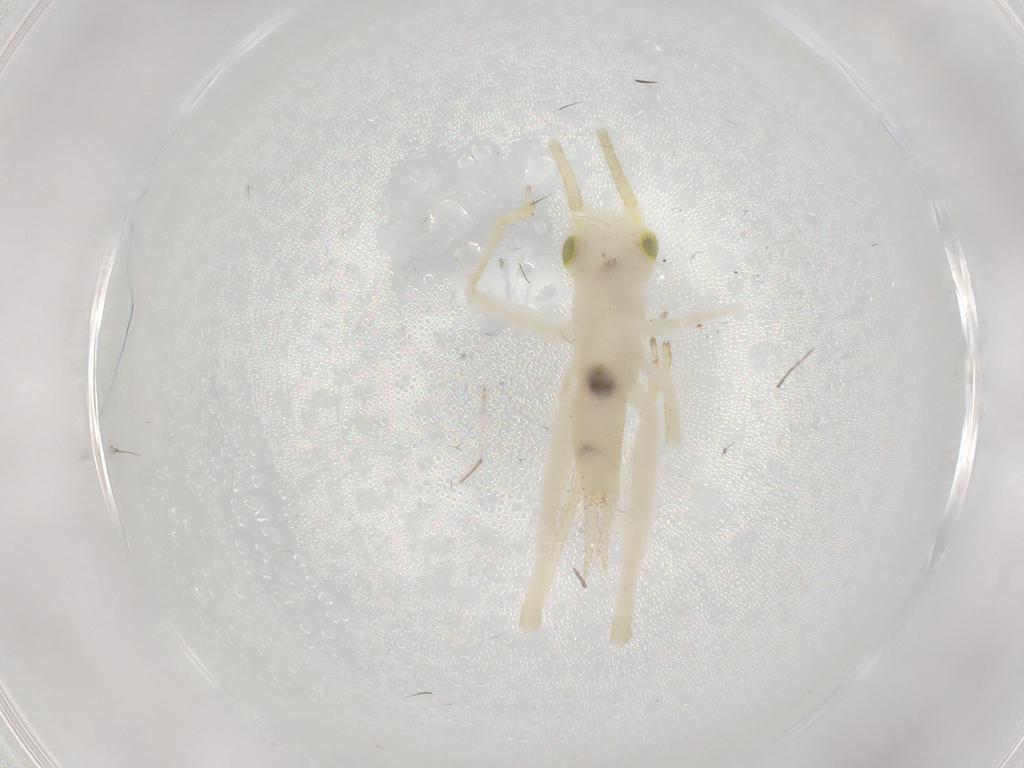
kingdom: Animalia
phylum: Arthropoda
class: Insecta
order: Orthoptera
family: Trigonidiidae
